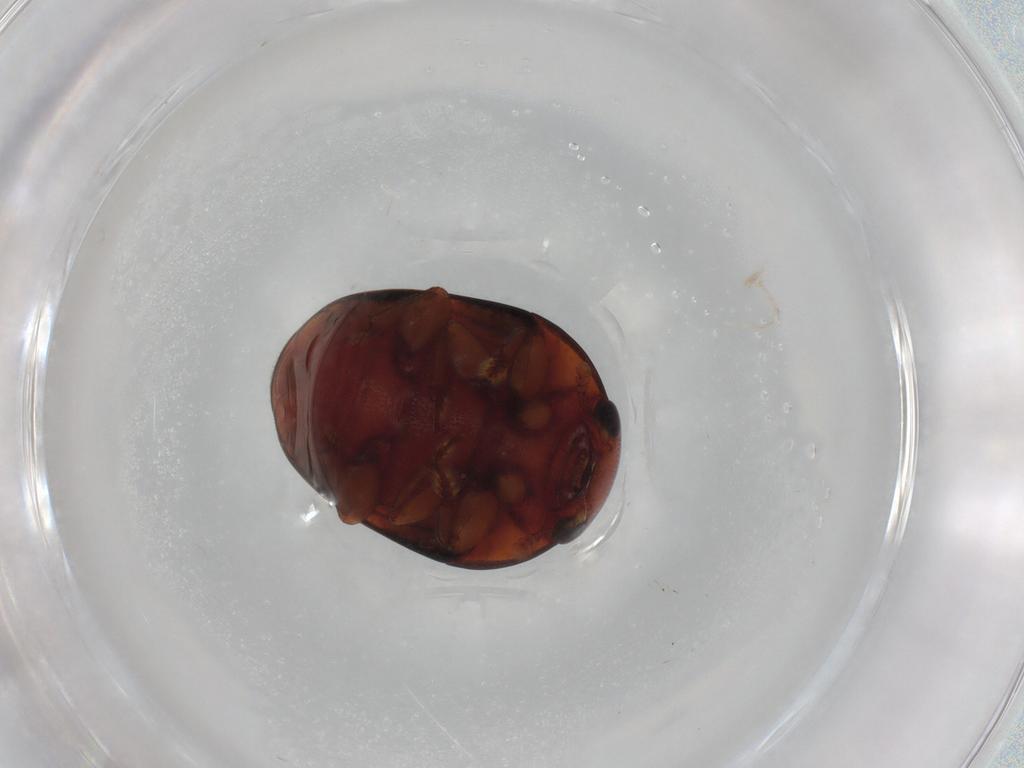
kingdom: Animalia
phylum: Arthropoda
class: Insecta
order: Coleoptera
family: Nitidulidae
